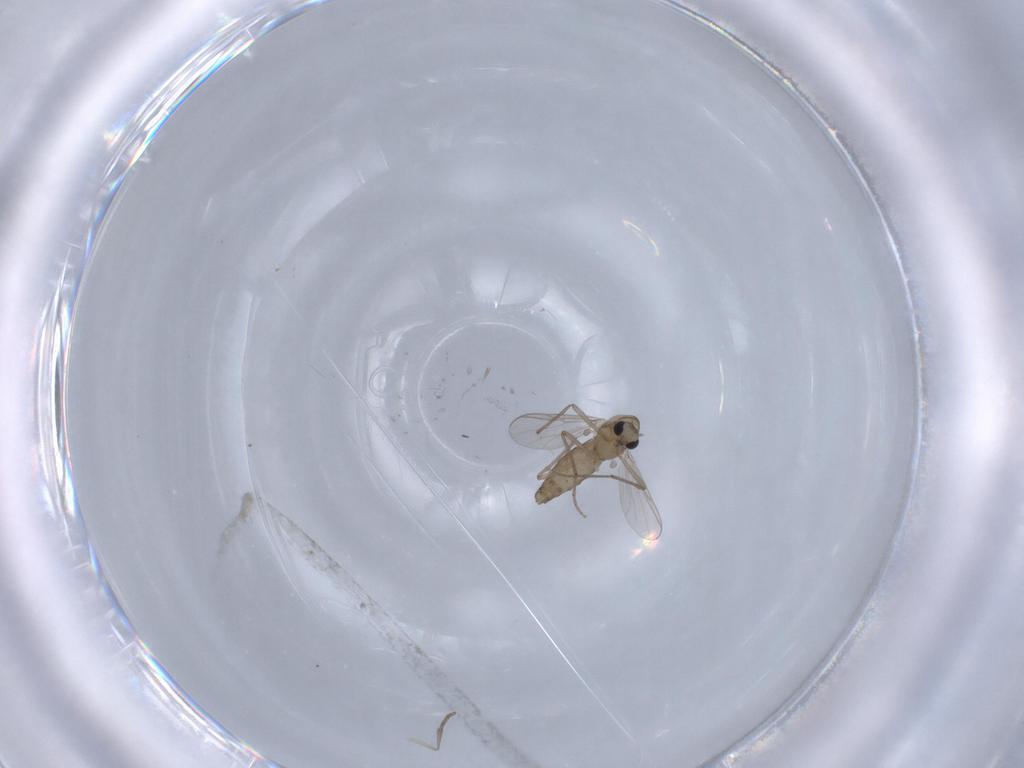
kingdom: Animalia
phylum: Arthropoda
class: Insecta
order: Diptera
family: Chironomidae
